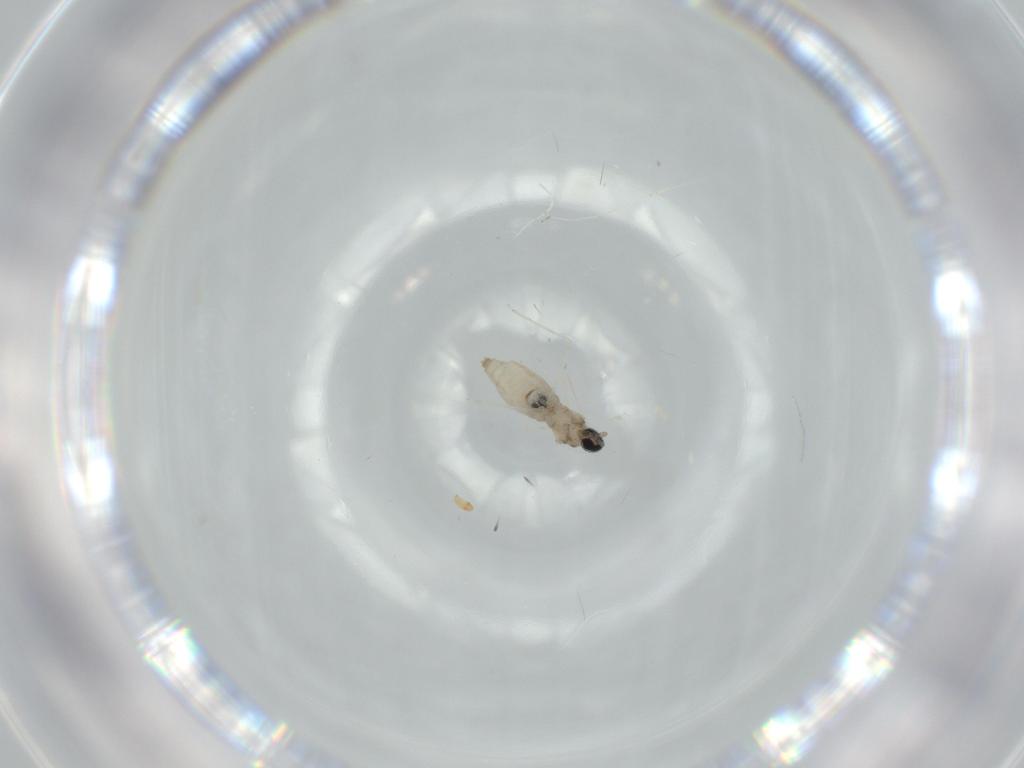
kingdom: Animalia
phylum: Arthropoda
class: Insecta
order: Diptera
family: Cecidomyiidae
